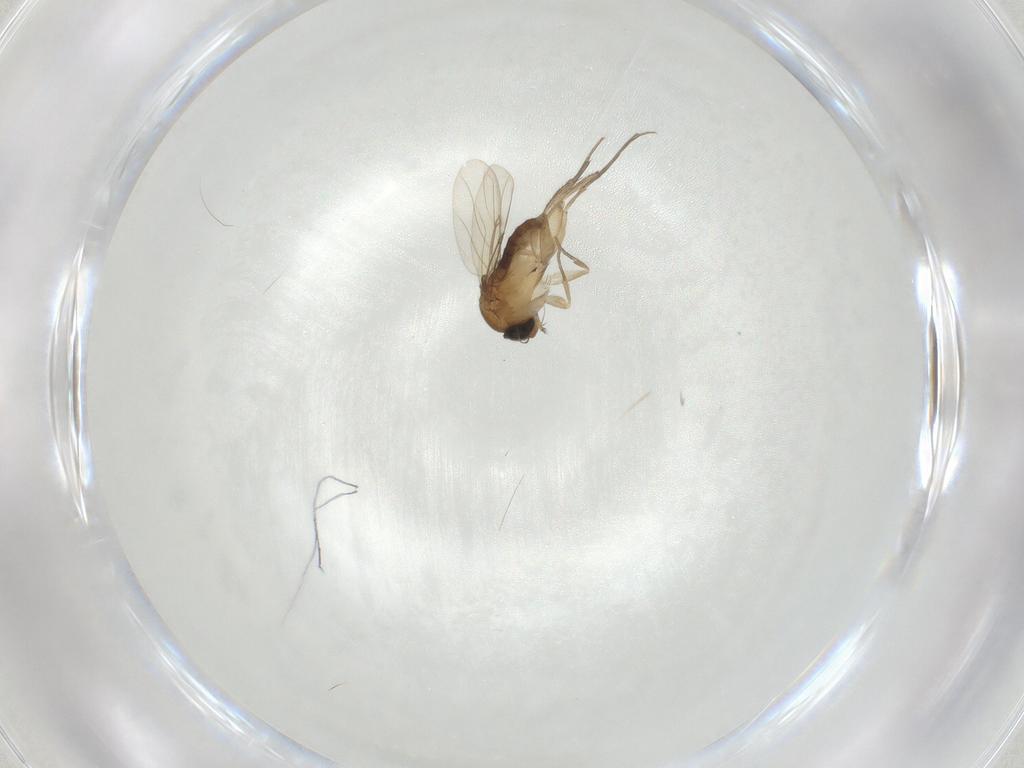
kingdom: Animalia
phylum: Arthropoda
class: Insecta
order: Diptera
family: Phoridae
